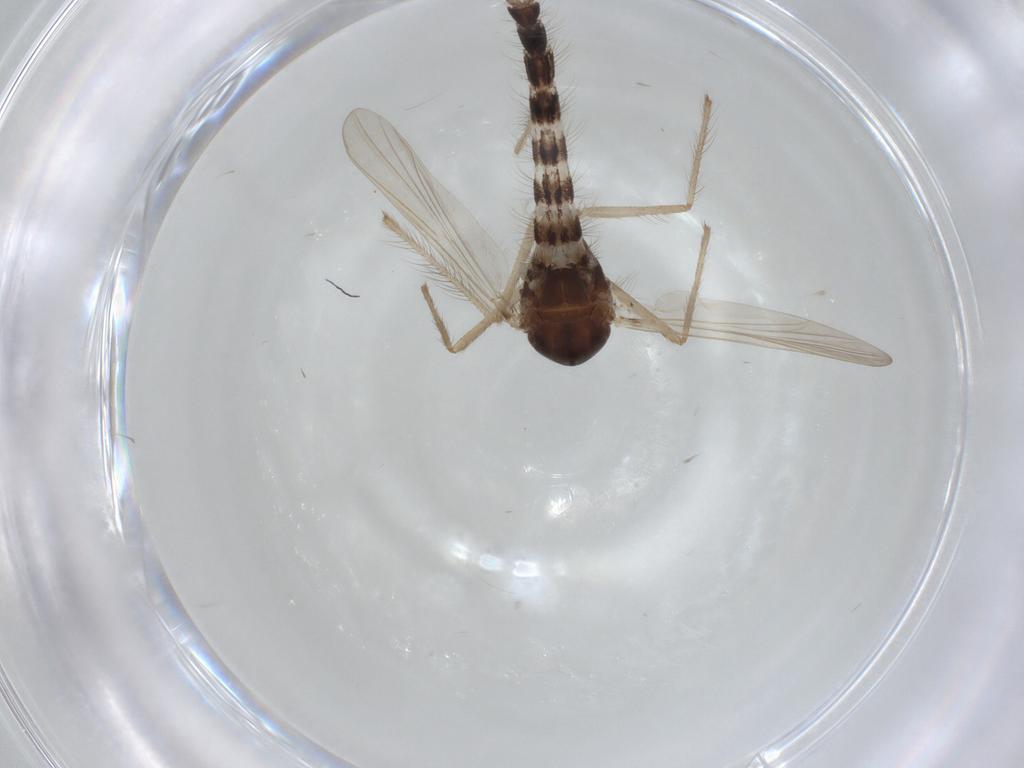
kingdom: Animalia
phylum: Arthropoda
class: Insecta
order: Diptera
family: Chironomidae
